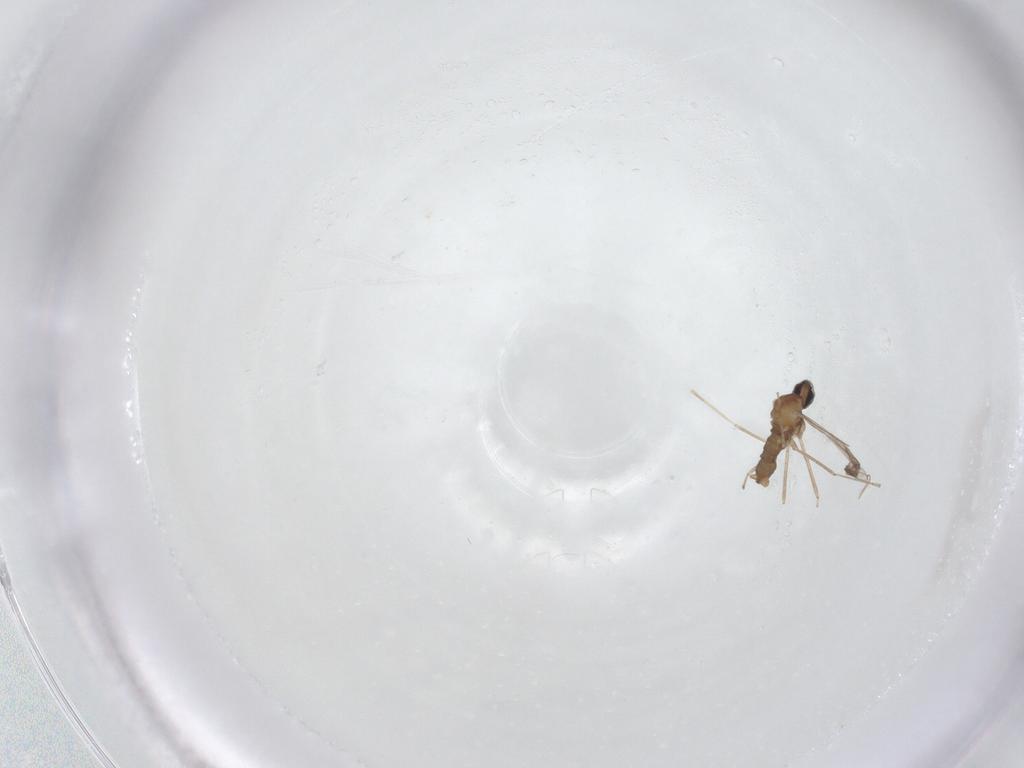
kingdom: Animalia
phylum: Arthropoda
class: Insecta
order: Diptera
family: Cecidomyiidae
